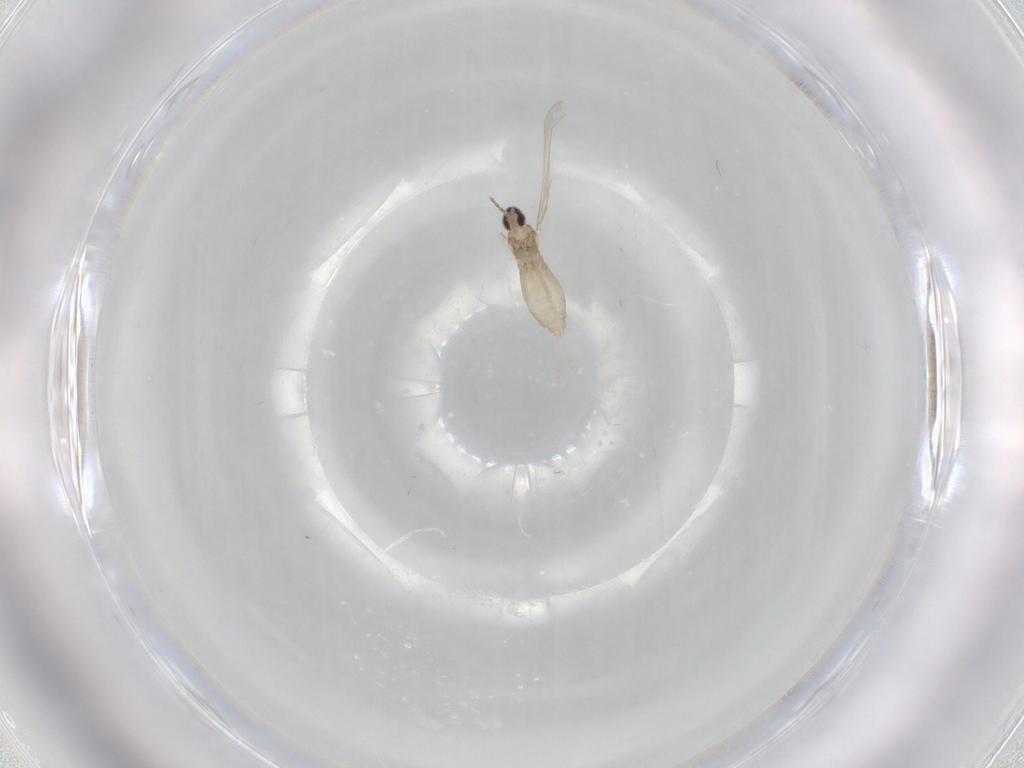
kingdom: Animalia
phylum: Arthropoda
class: Insecta
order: Diptera
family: Cecidomyiidae
